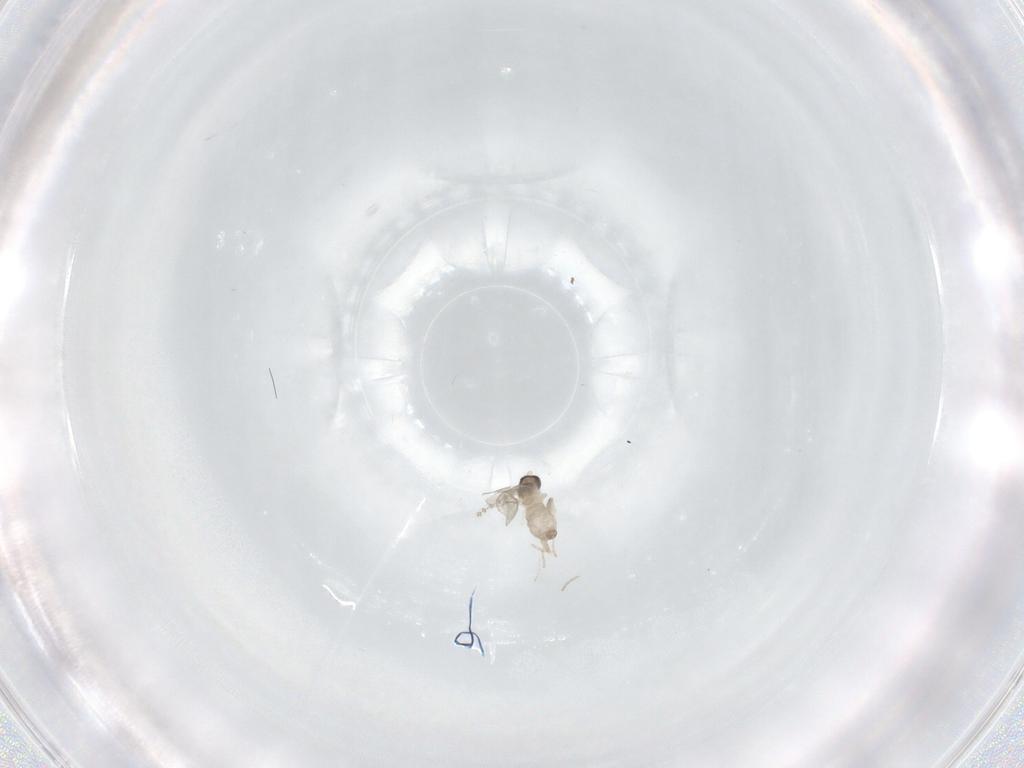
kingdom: Animalia
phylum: Arthropoda
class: Insecta
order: Diptera
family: Cecidomyiidae
